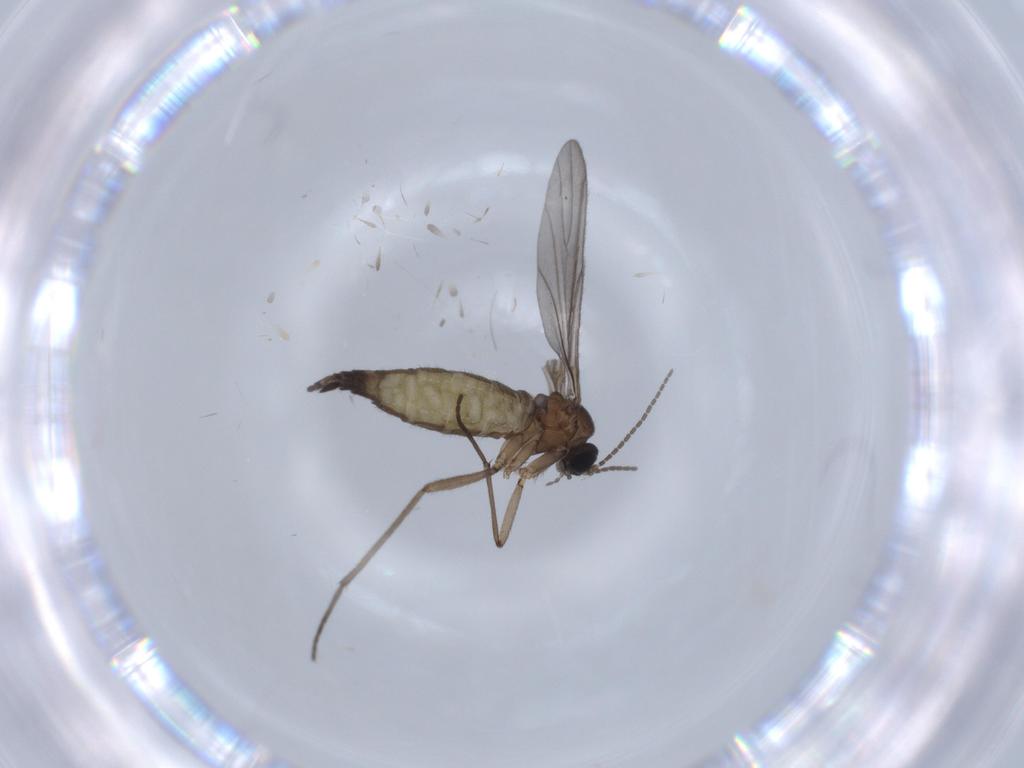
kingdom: Animalia
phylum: Arthropoda
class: Insecta
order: Diptera
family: Sciaridae
